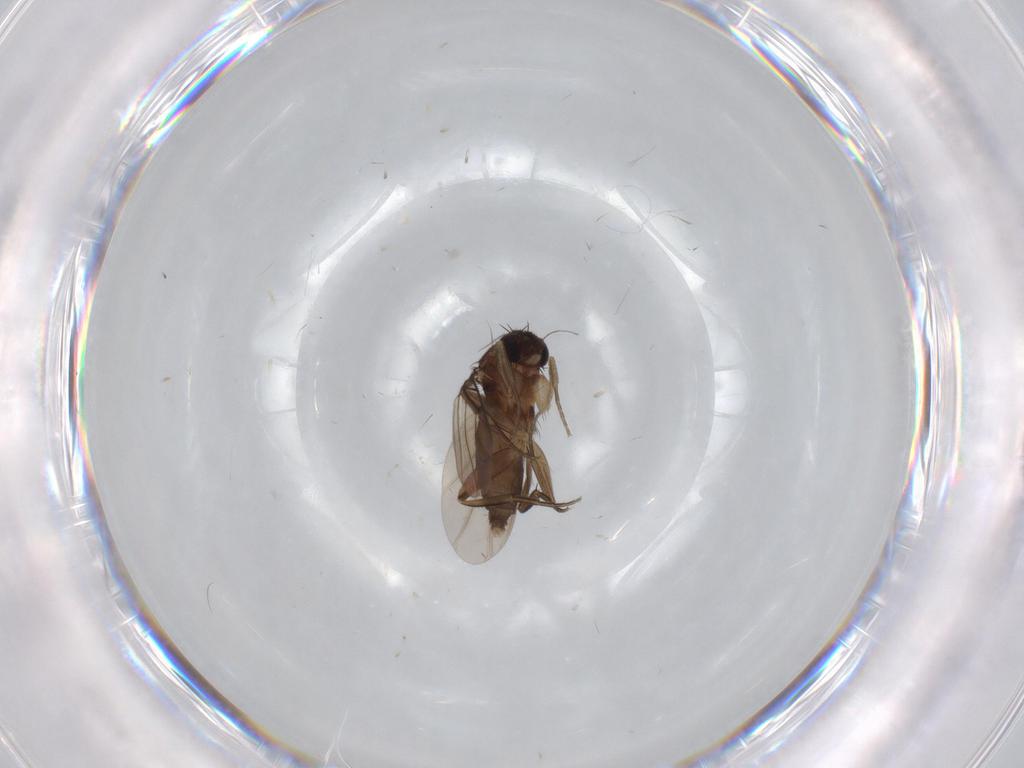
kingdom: Animalia
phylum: Arthropoda
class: Insecta
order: Diptera
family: Phoridae
